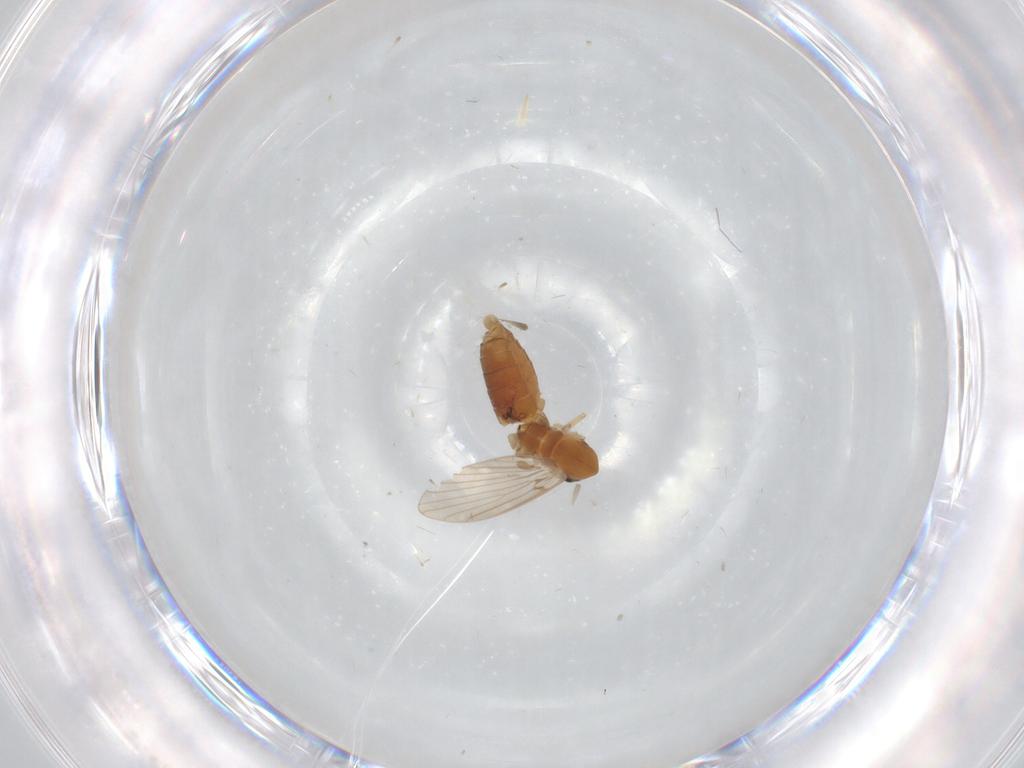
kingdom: Animalia
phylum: Arthropoda
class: Insecta
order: Diptera
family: Cecidomyiidae
